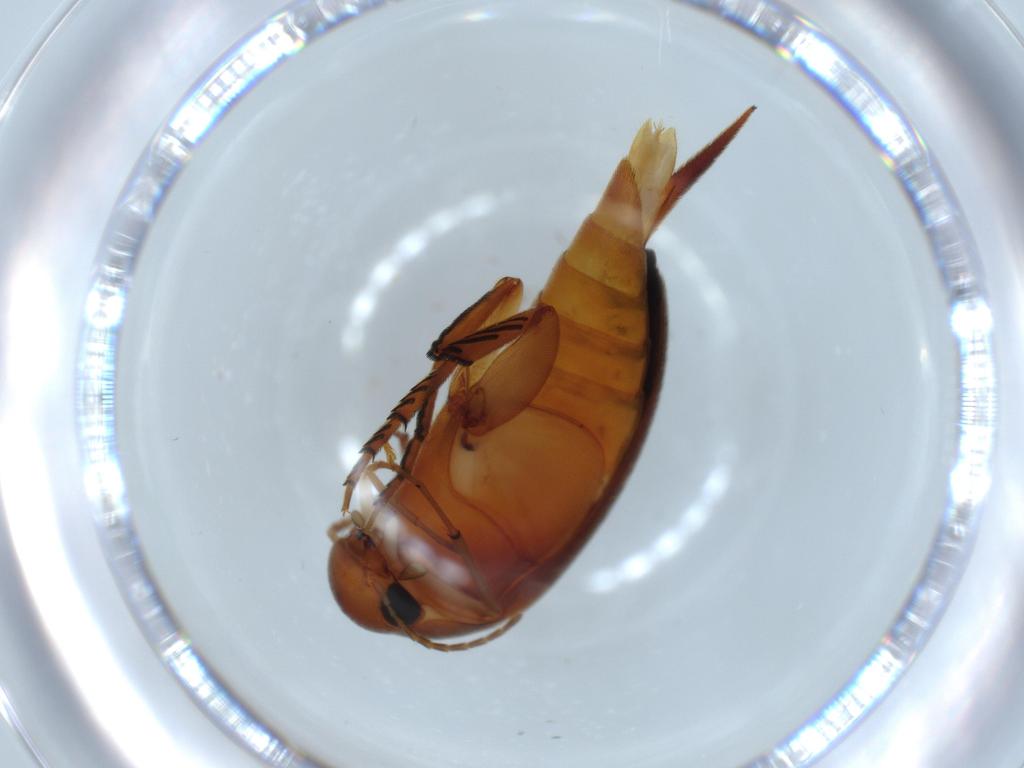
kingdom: Animalia
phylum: Arthropoda
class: Insecta
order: Coleoptera
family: Mordellidae
